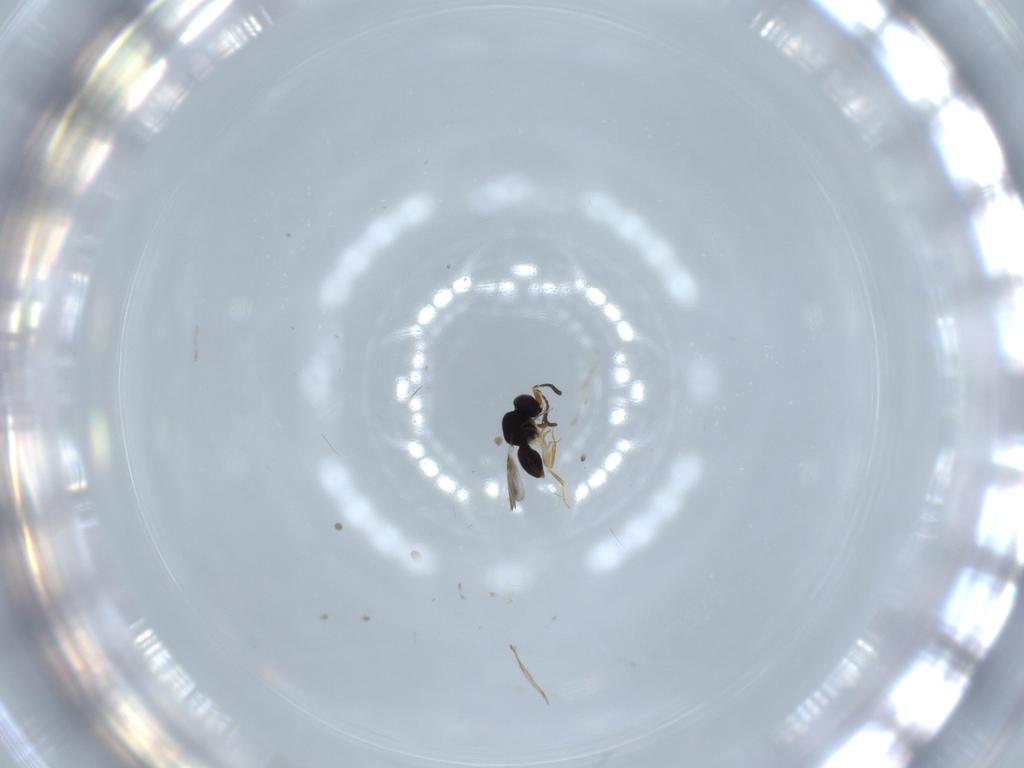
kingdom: Animalia
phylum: Arthropoda
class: Insecta
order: Hymenoptera
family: Ceraphronidae
